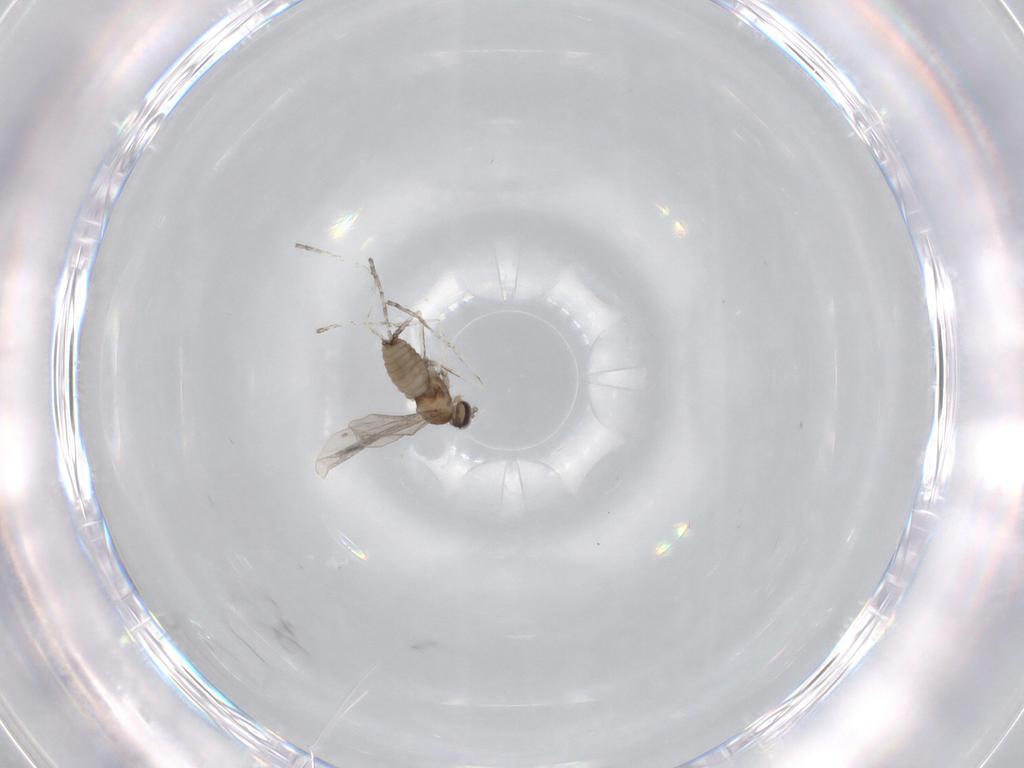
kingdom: Animalia
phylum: Arthropoda
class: Insecta
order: Diptera
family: Cecidomyiidae
